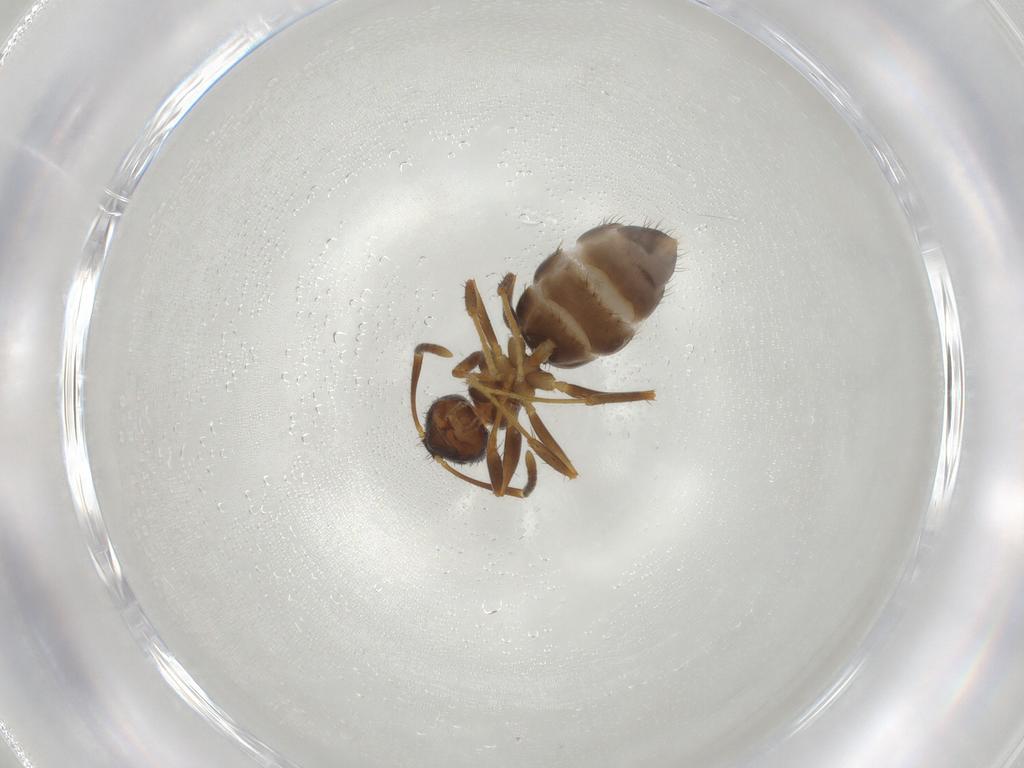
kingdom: Animalia
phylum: Arthropoda
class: Insecta
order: Hymenoptera
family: Formicidae
